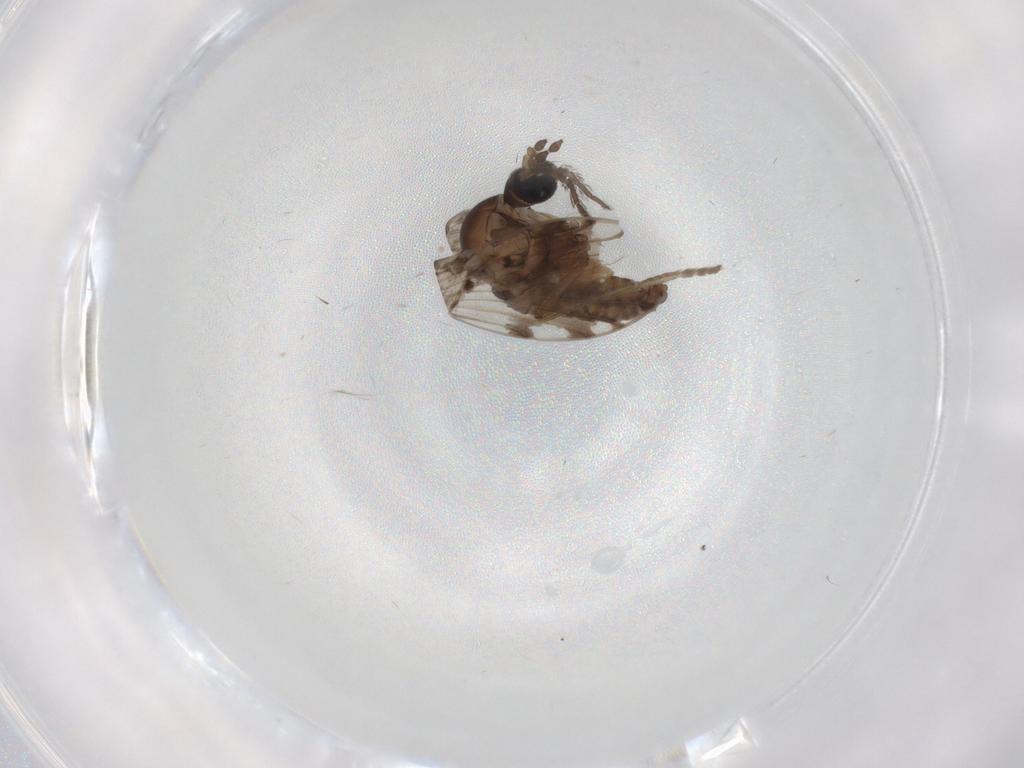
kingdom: Animalia
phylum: Arthropoda
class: Insecta
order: Diptera
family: Psychodidae
